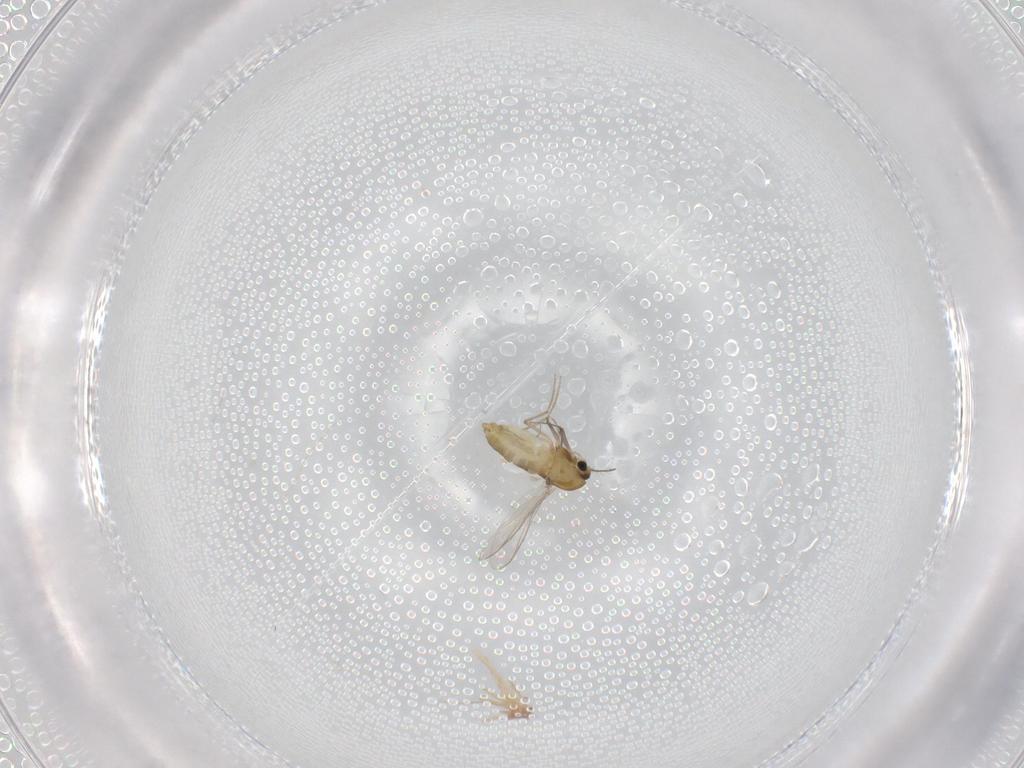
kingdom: Animalia
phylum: Arthropoda
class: Insecta
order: Diptera
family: Chironomidae
